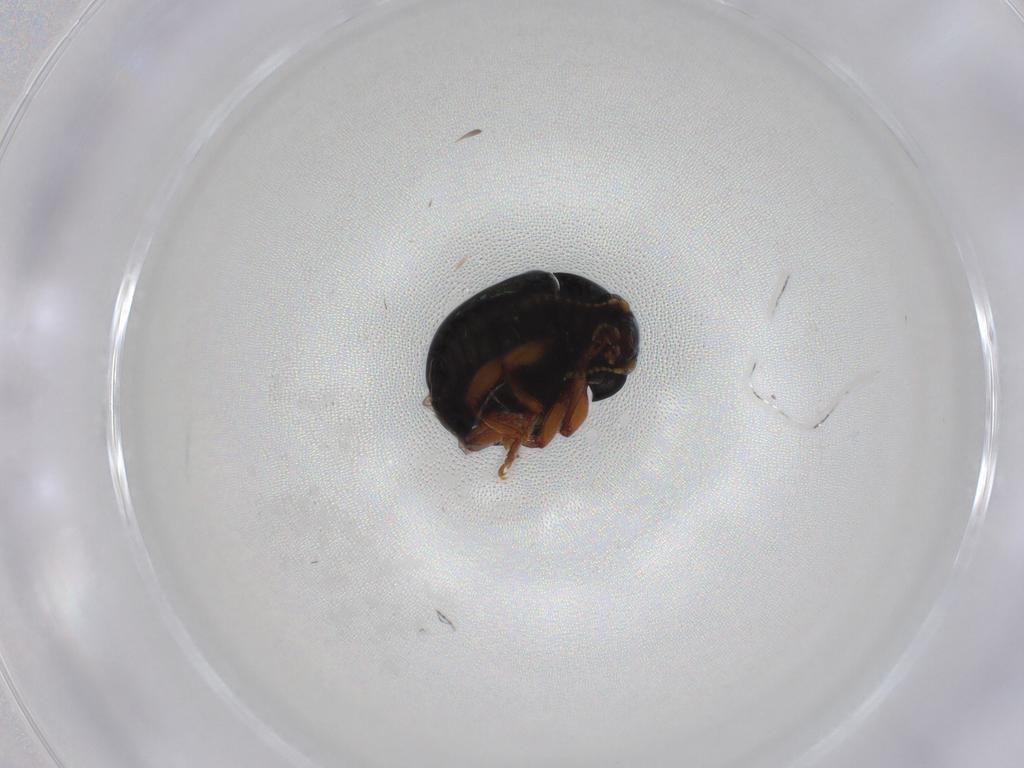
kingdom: Animalia
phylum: Arthropoda
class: Insecta
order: Coleoptera
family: Chrysomelidae
